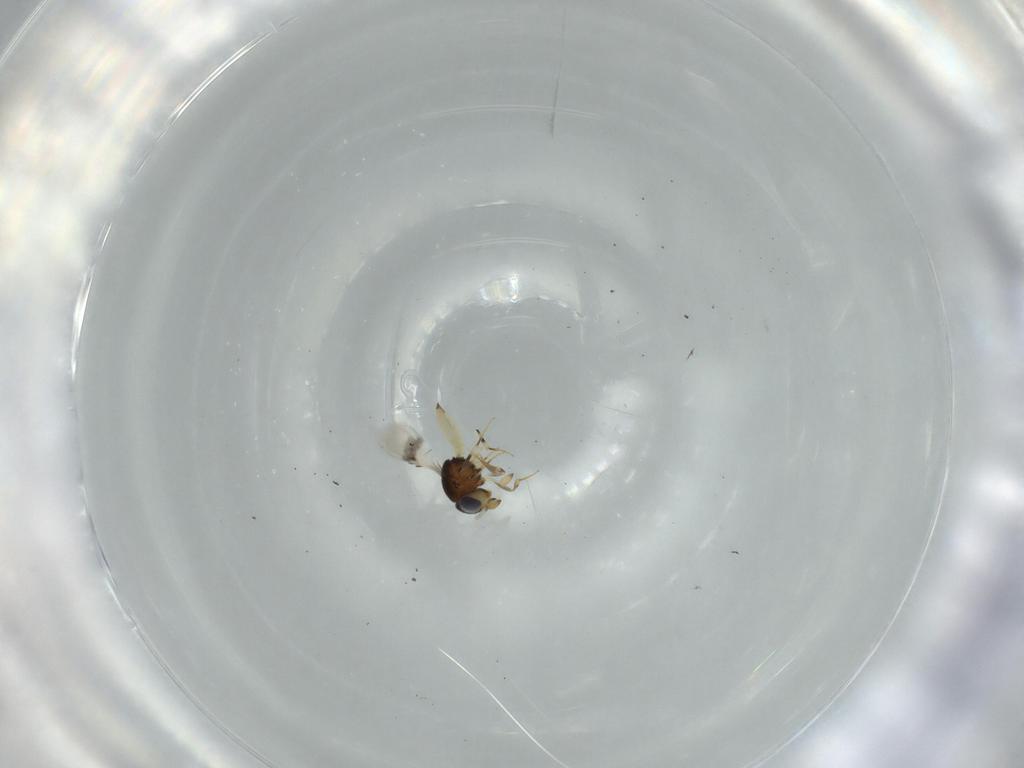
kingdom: Animalia
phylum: Arthropoda
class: Insecta
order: Hymenoptera
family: Scelionidae
